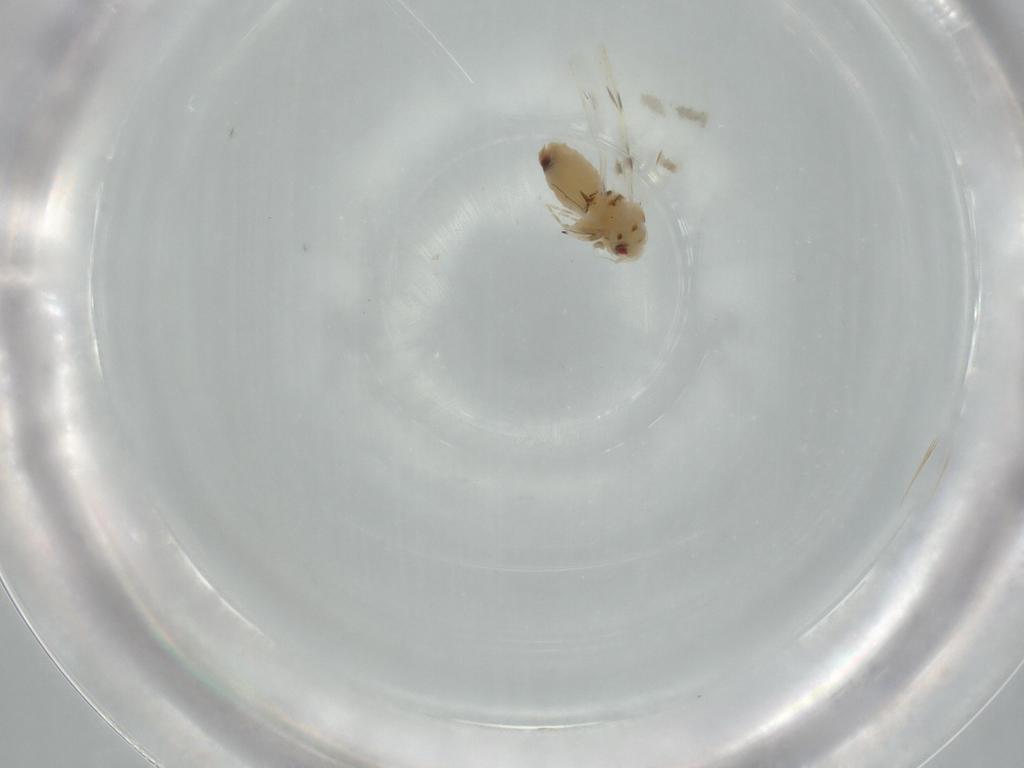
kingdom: Animalia
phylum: Arthropoda
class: Insecta
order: Hemiptera
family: Aleyrodidae
